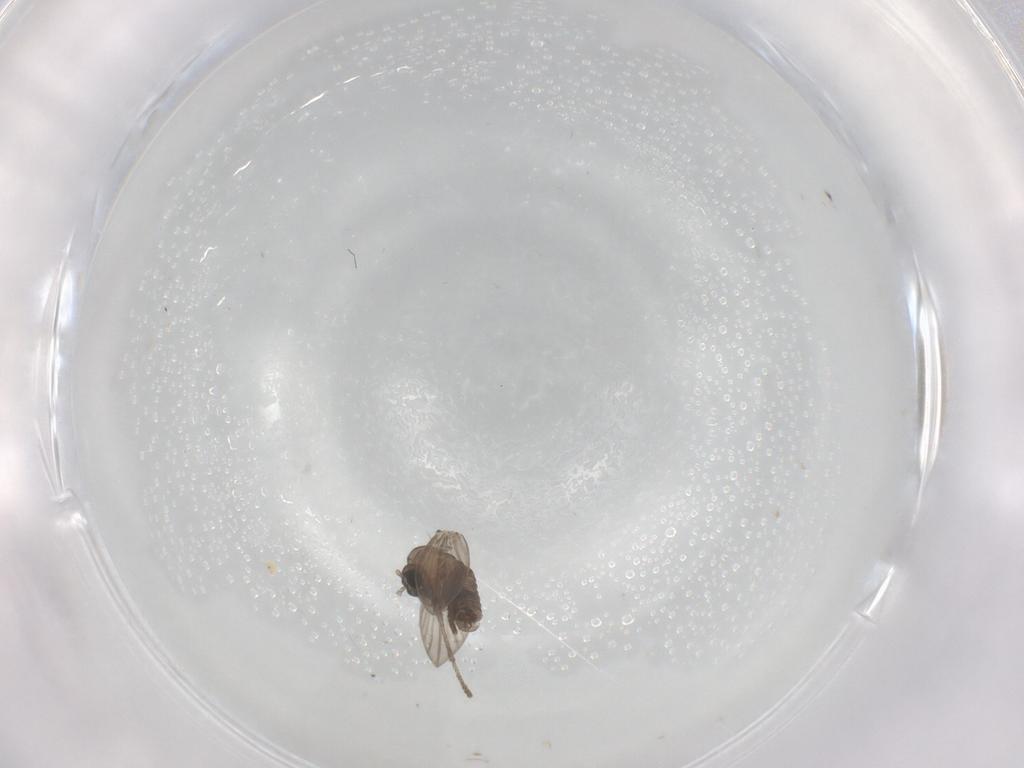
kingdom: Animalia
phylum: Arthropoda
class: Insecta
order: Diptera
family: Psychodidae
